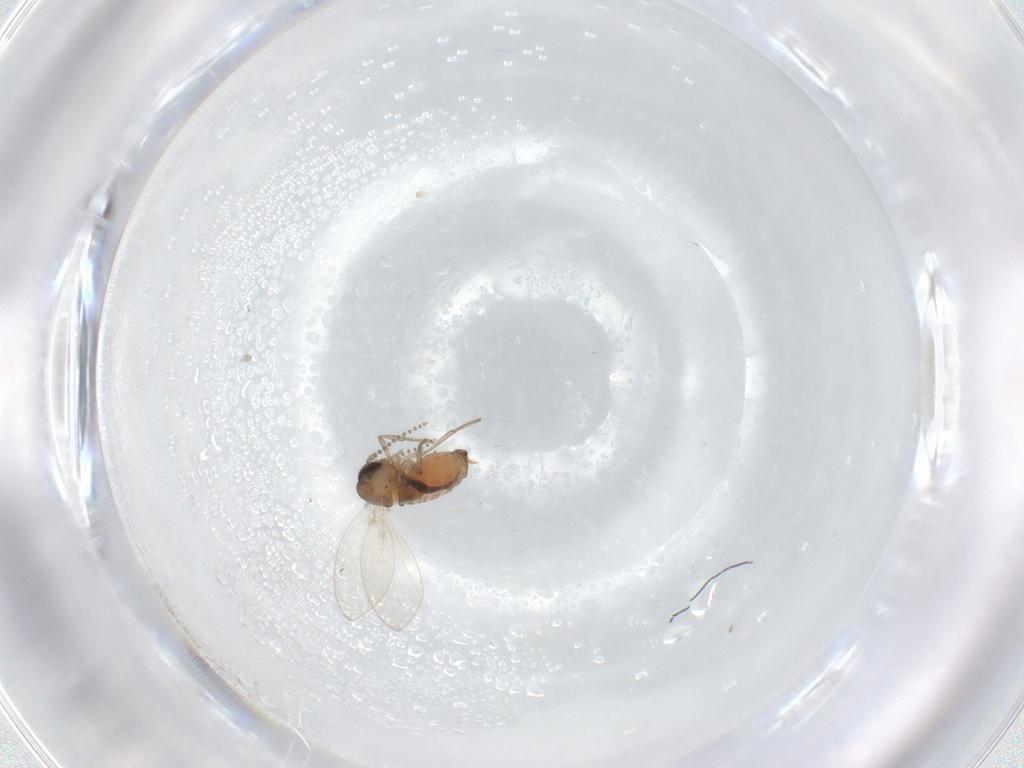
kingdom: Animalia
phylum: Arthropoda
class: Insecta
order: Diptera
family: Psychodidae
